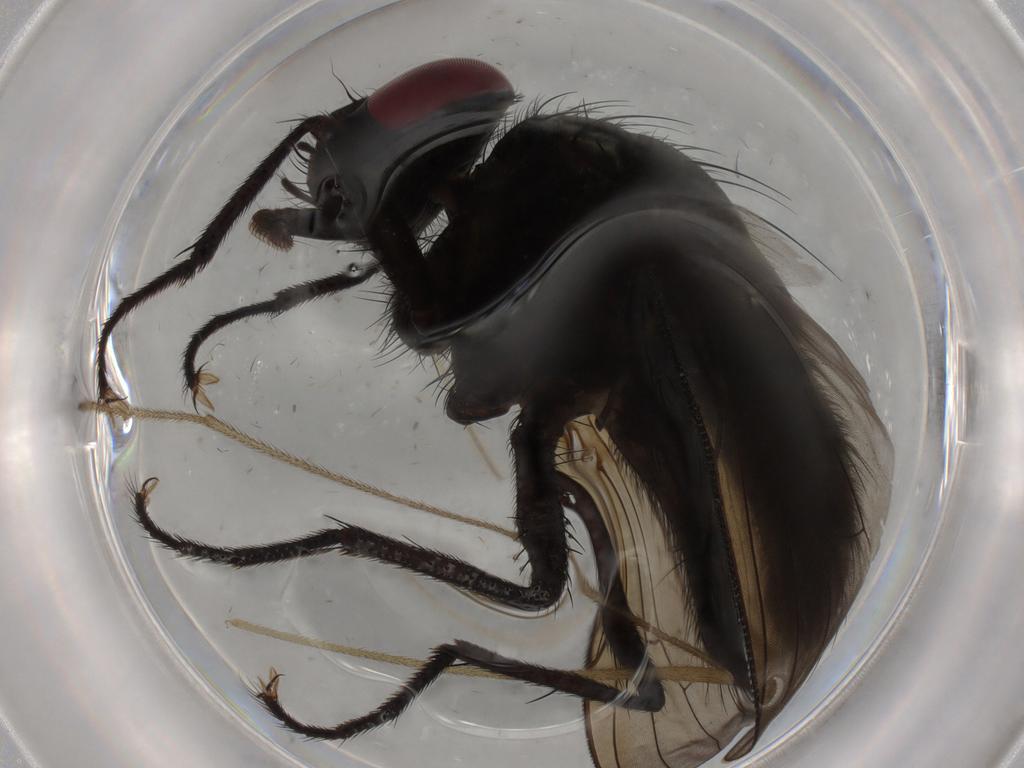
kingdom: Animalia
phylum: Arthropoda
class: Insecta
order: Diptera
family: Muscidae
